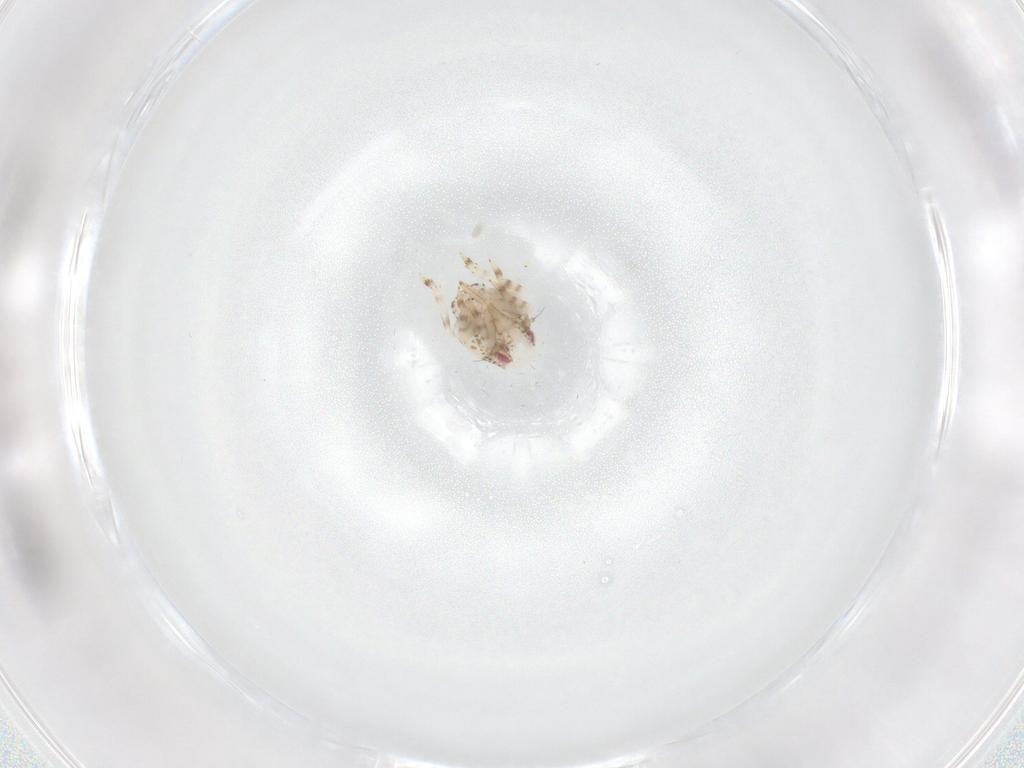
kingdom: Animalia
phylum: Arthropoda
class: Insecta
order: Hemiptera
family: Acanaloniidae
